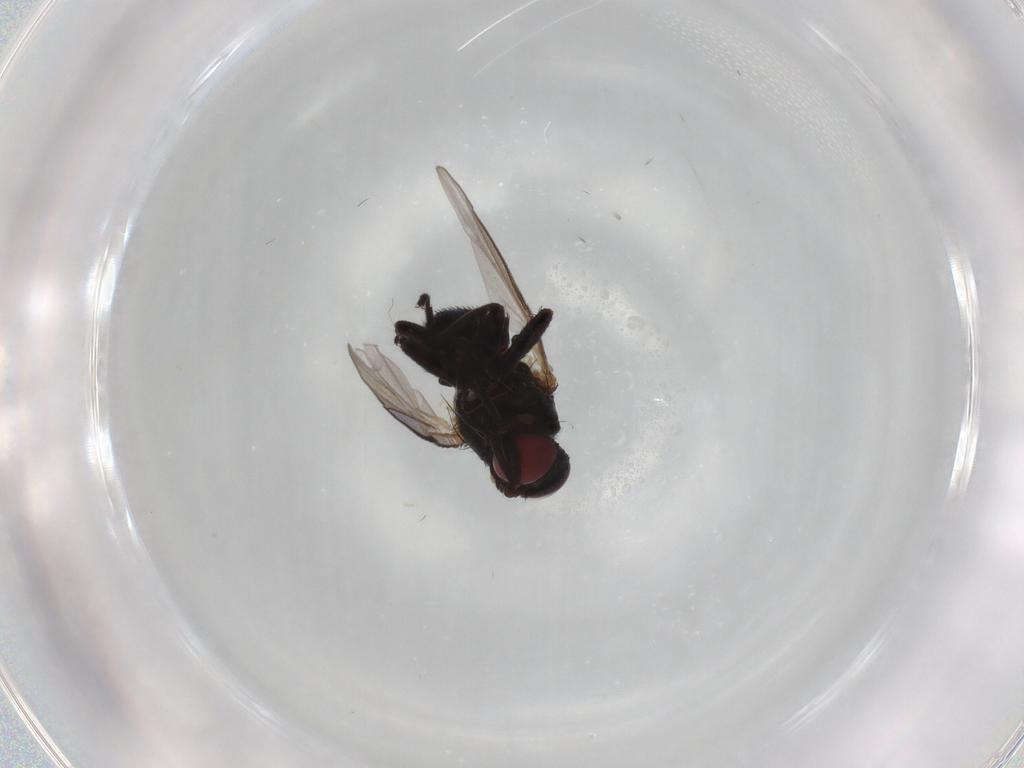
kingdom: Animalia
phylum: Arthropoda
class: Insecta
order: Diptera
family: Agromyzidae
